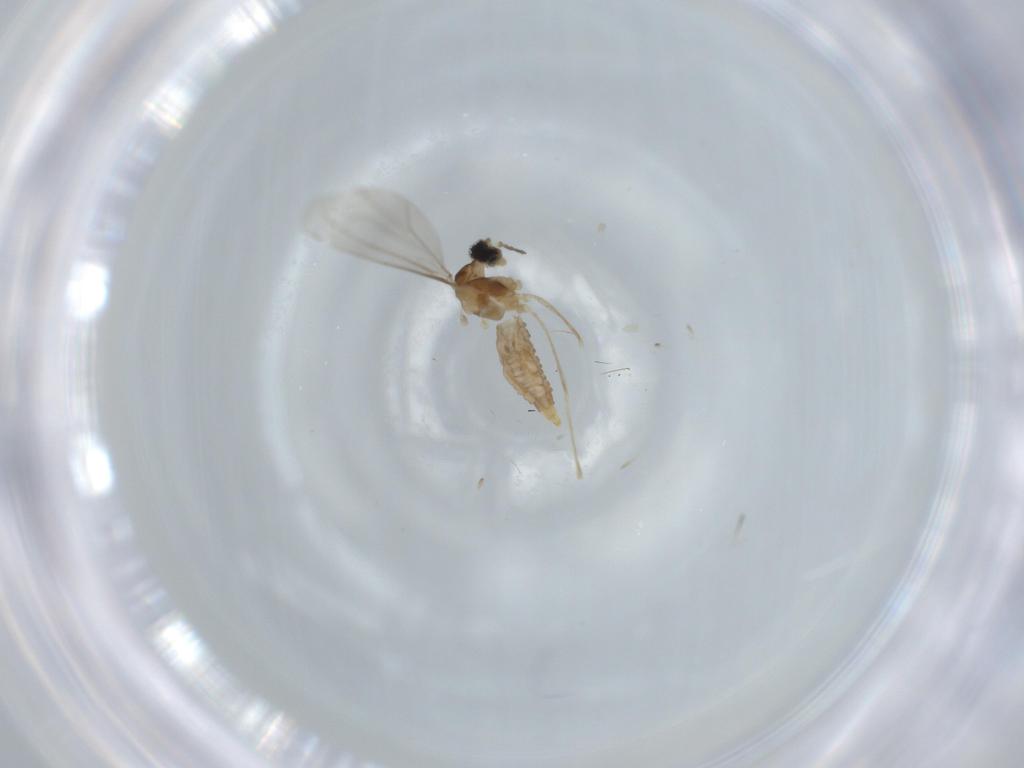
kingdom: Animalia
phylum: Arthropoda
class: Insecta
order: Diptera
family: Cecidomyiidae
